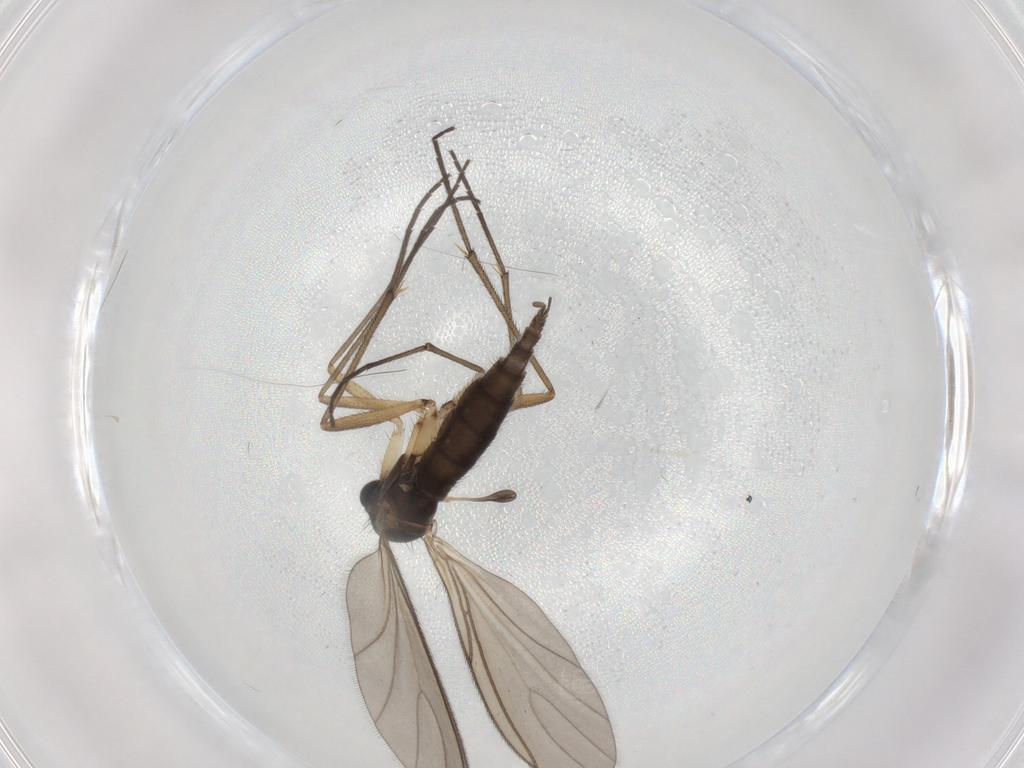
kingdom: Animalia
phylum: Arthropoda
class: Insecta
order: Diptera
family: Sciaridae
